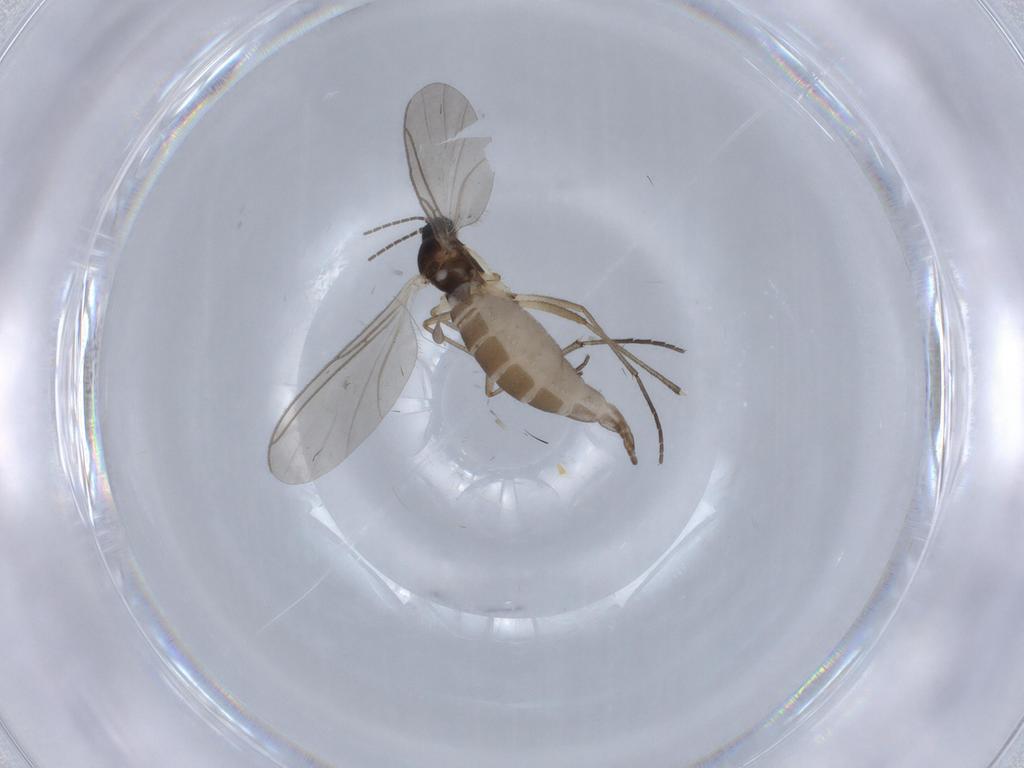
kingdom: Animalia
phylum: Arthropoda
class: Insecta
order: Diptera
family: Sciaridae
